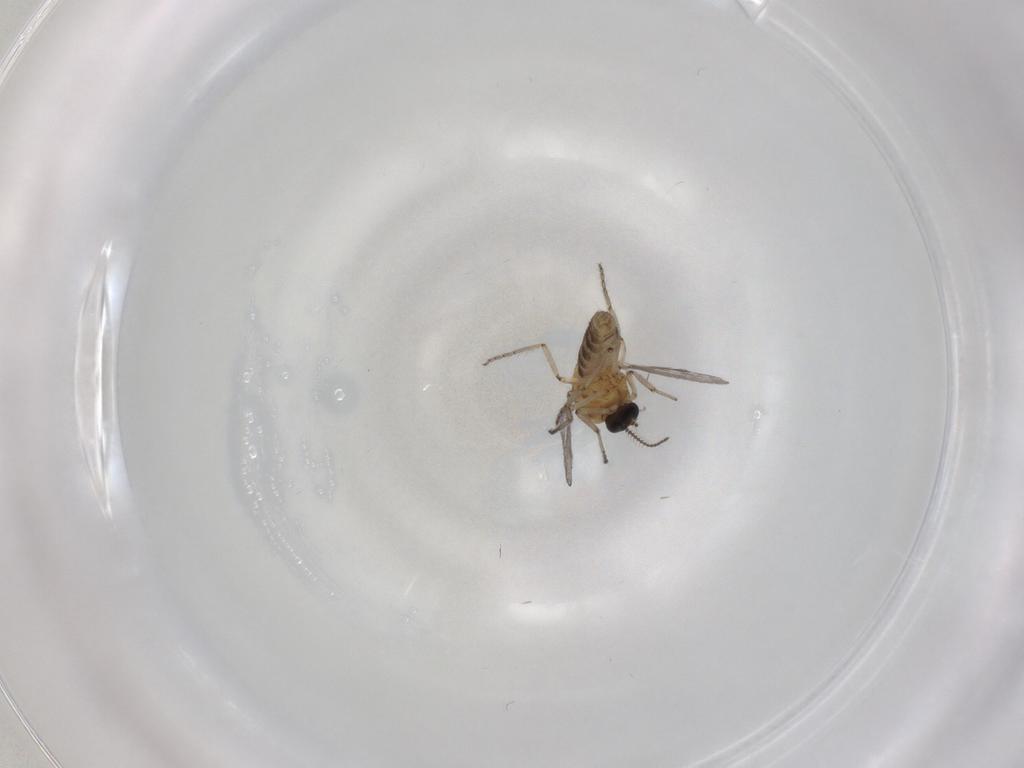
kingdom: Animalia
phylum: Arthropoda
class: Insecta
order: Diptera
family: Ceratopogonidae
